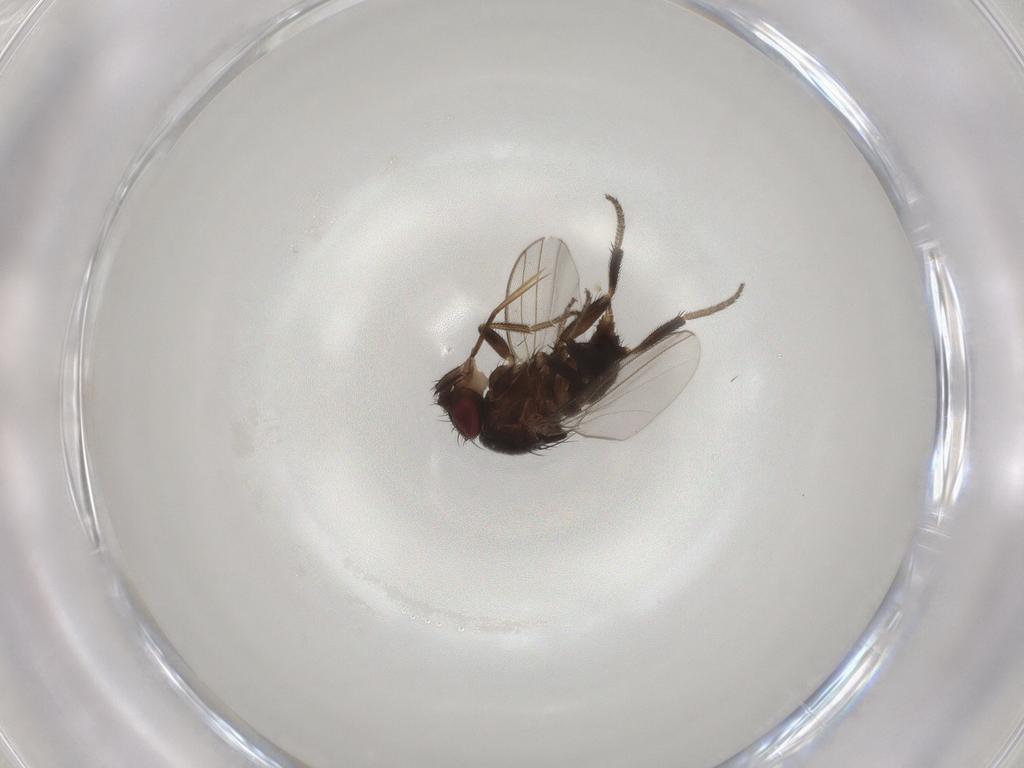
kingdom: Animalia
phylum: Arthropoda
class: Insecta
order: Diptera
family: Milichiidae
